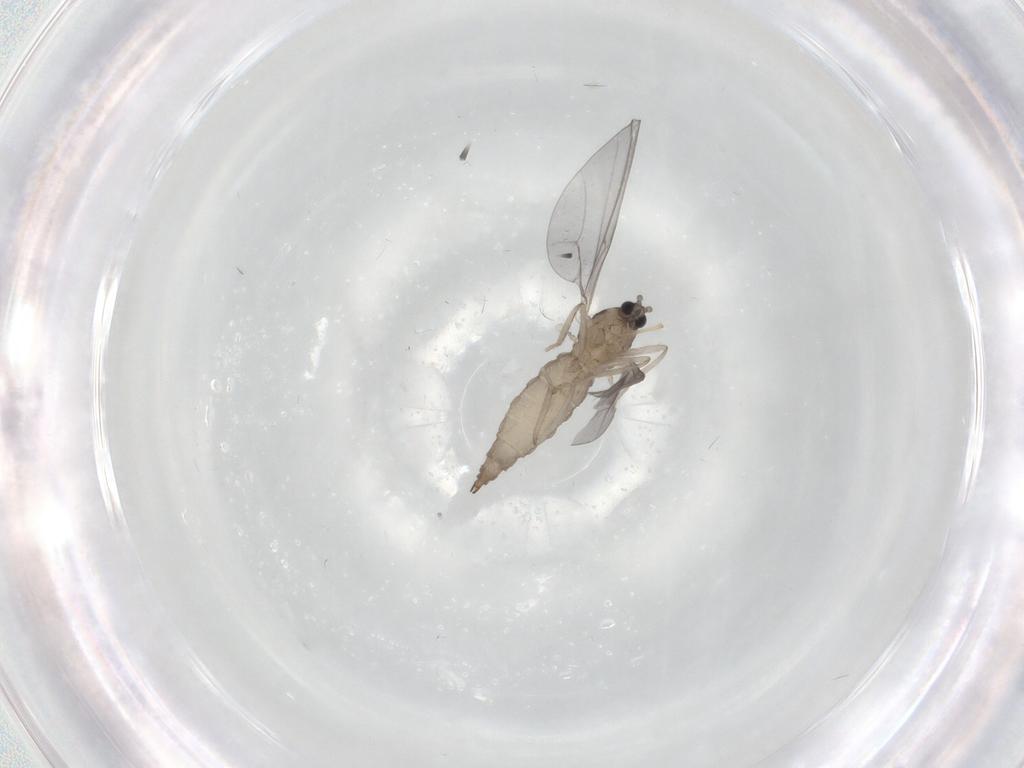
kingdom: Animalia
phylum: Arthropoda
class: Insecta
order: Diptera
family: Cecidomyiidae
